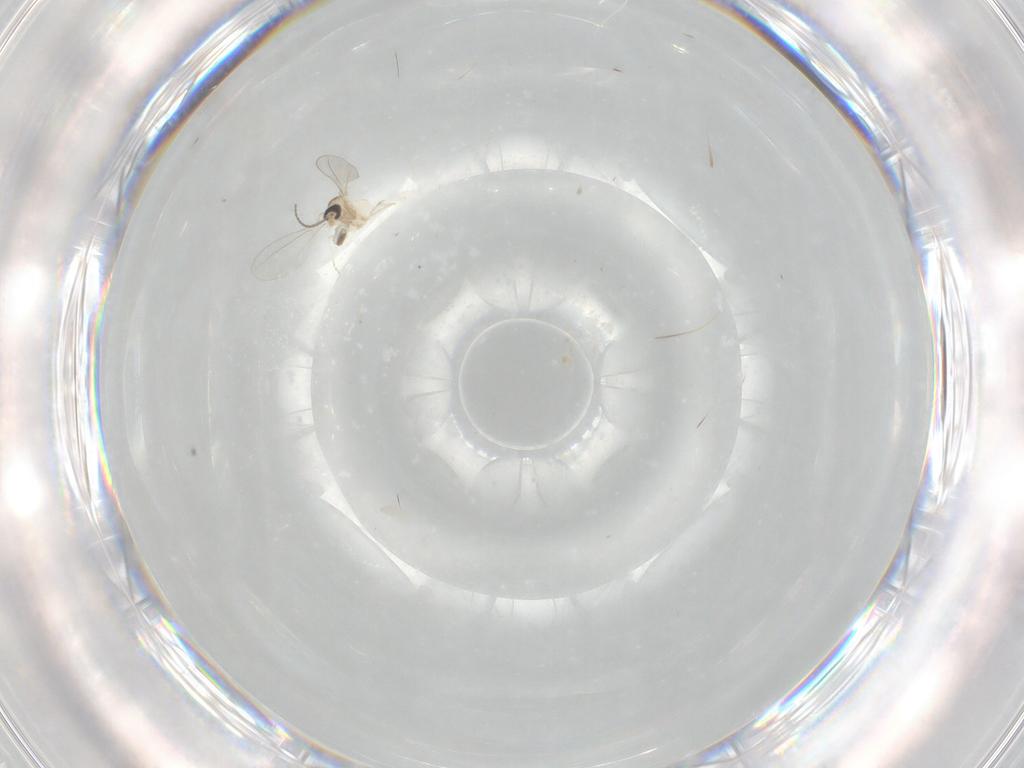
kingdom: Animalia
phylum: Arthropoda
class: Insecta
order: Diptera
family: Cecidomyiidae
